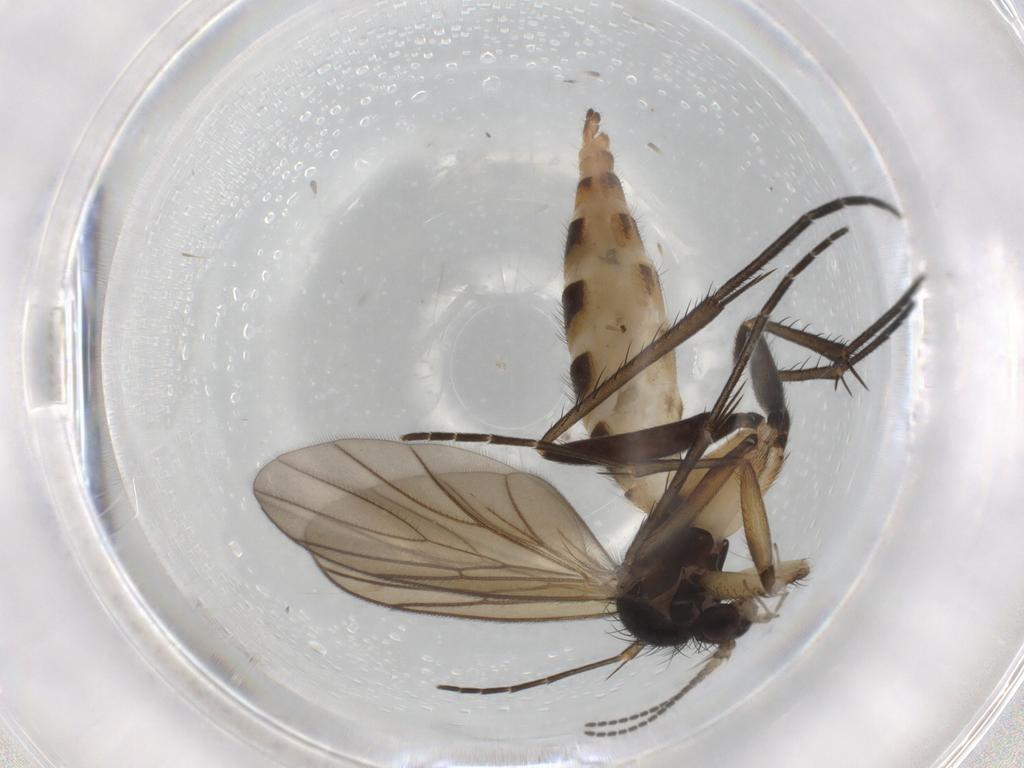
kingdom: Animalia
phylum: Arthropoda
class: Insecta
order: Diptera
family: Mycetophilidae
